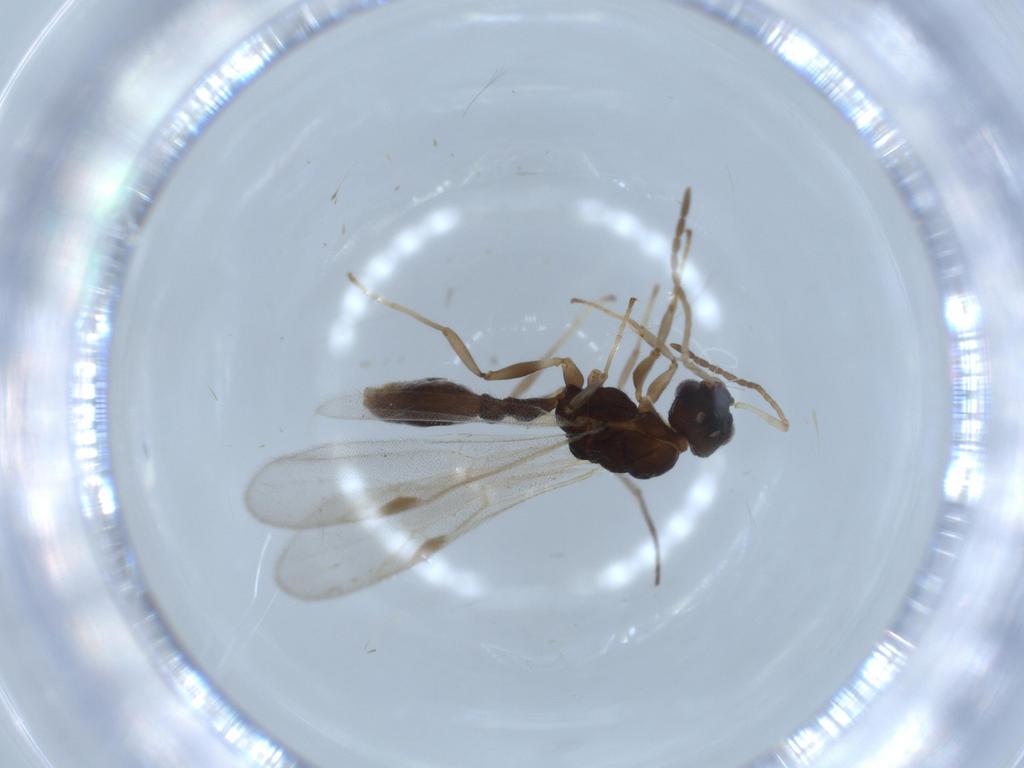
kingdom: Animalia
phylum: Arthropoda
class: Insecta
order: Hymenoptera
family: Formicidae
